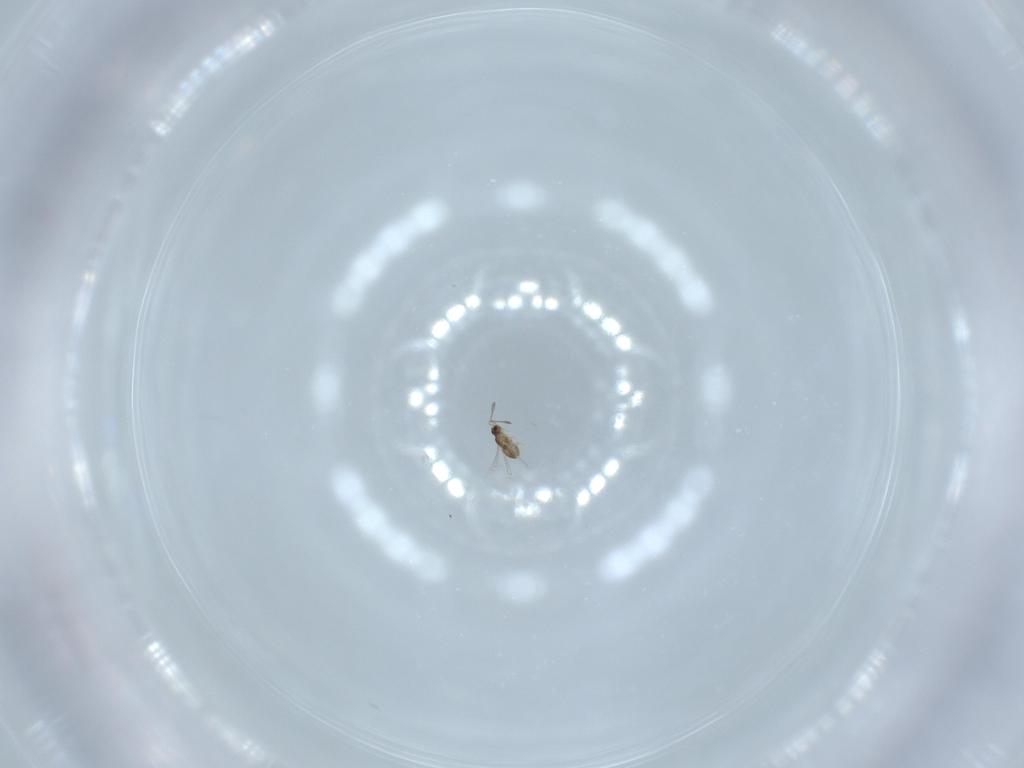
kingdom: Animalia
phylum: Arthropoda
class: Insecta
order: Hymenoptera
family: Mymaridae
